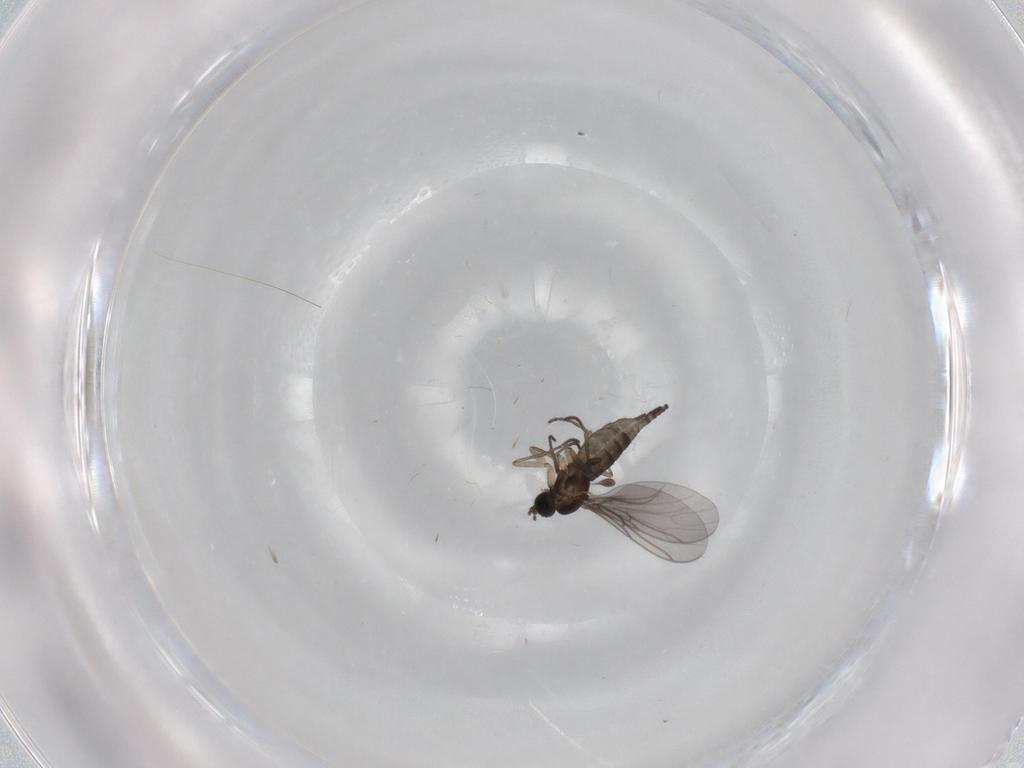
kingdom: Animalia
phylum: Arthropoda
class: Insecta
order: Diptera
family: Sciaridae
